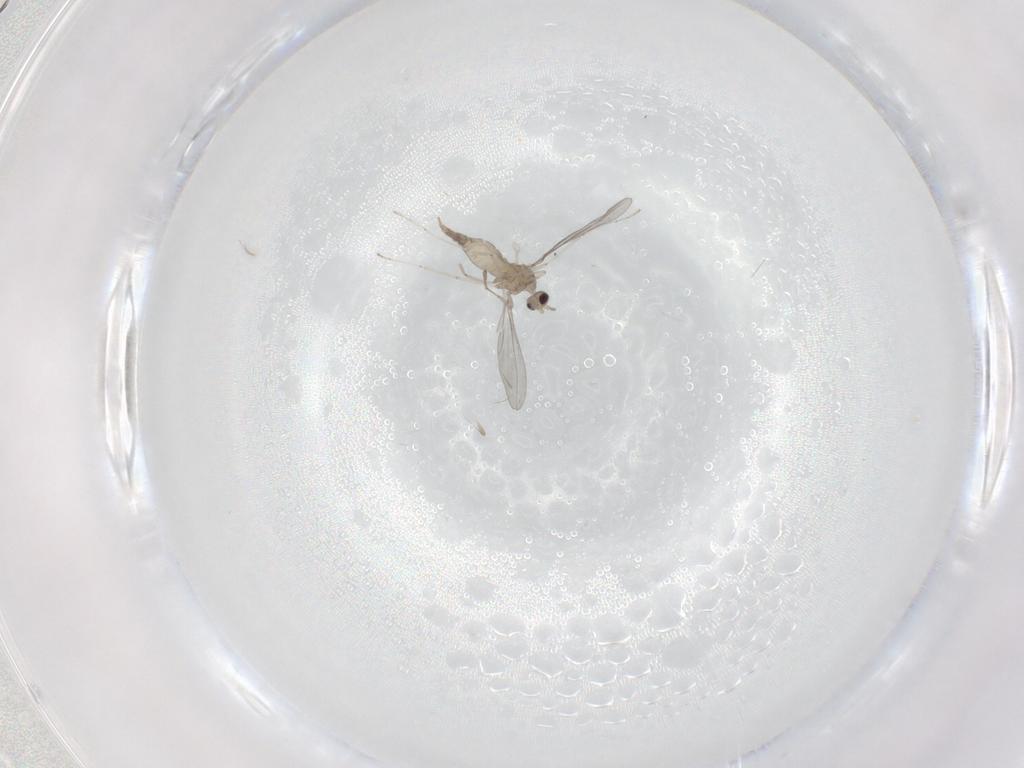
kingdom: Animalia
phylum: Arthropoda
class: Insecta
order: Diptera
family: Cecidomyiidae
